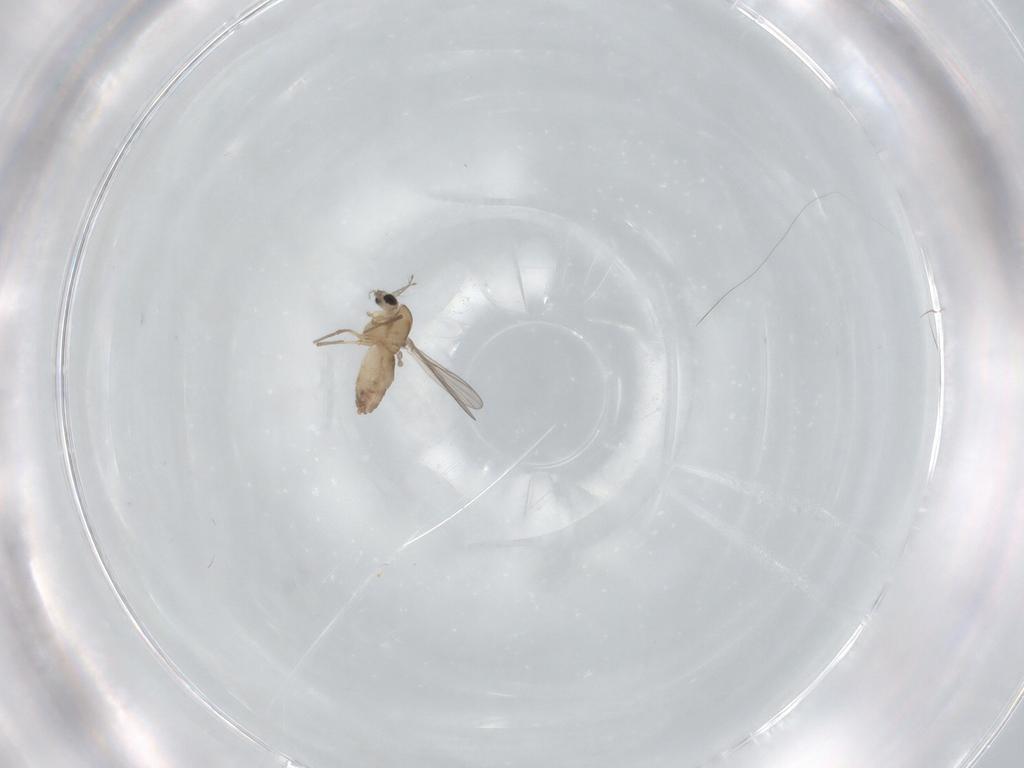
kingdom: Animalia
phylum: Arthropoda
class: Insecta
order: Diptera
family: Chironomidae
